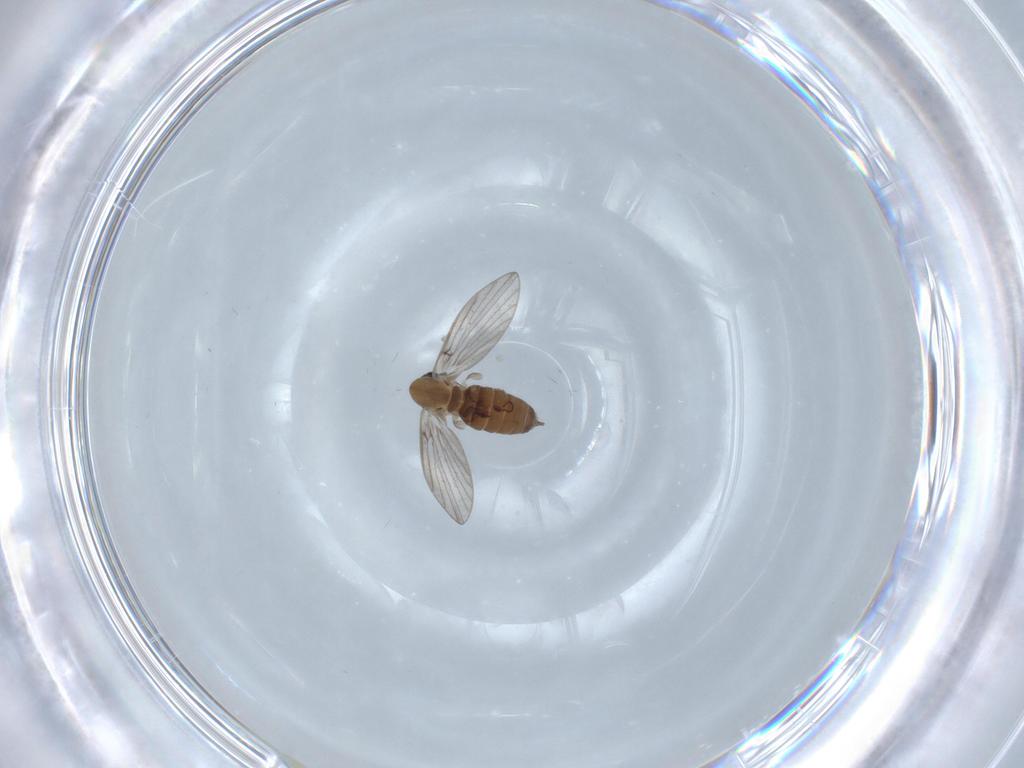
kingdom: Animalia
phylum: Arthropoda
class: Insecta
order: Diptera
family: Psychodidae
